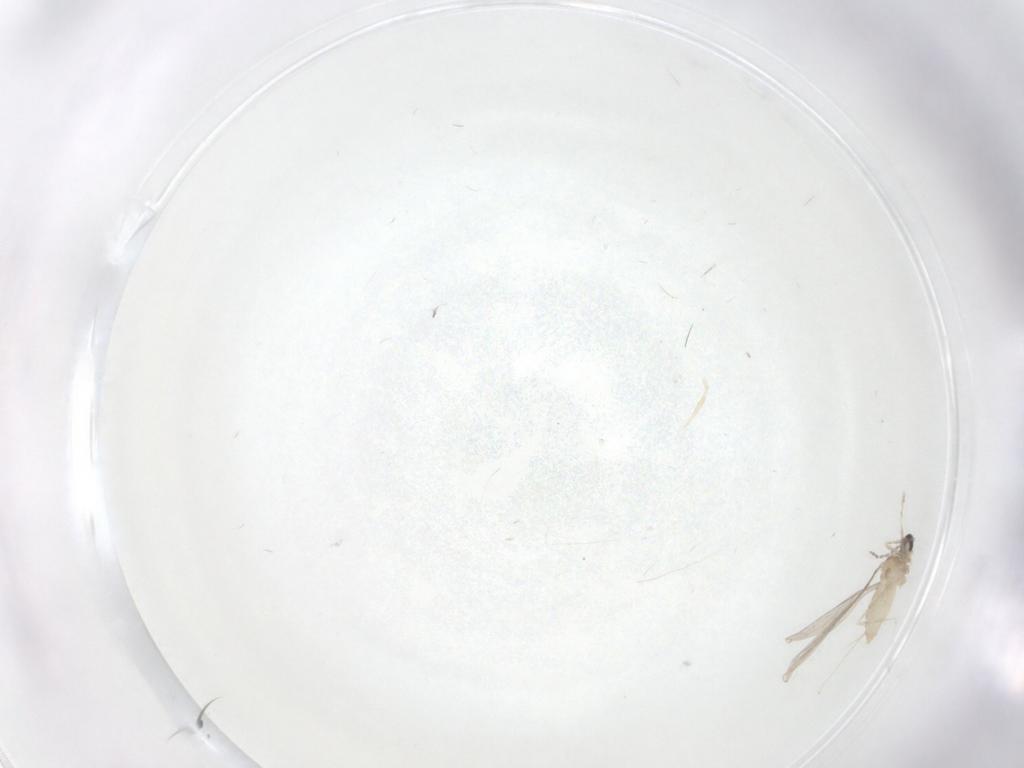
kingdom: Animalia
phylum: Arthropoda
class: Insecta
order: Diptera
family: Cecidomyiidae
